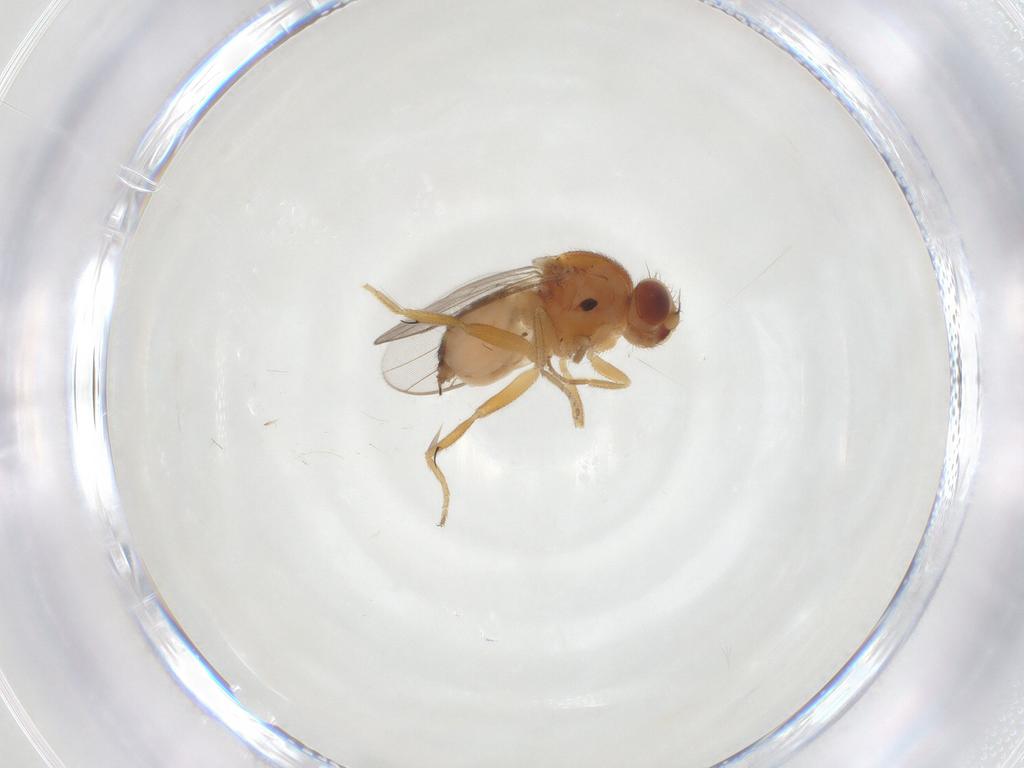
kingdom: Animalia
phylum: Arthropoda
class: Insecta
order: Diptera
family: Chloropidae
